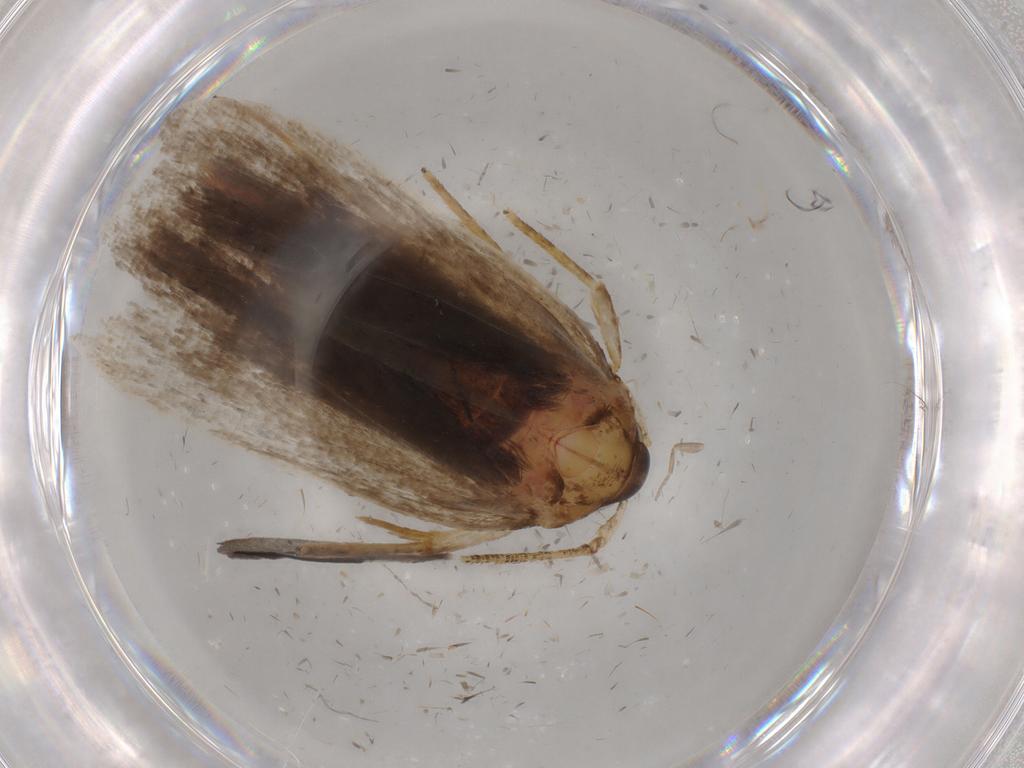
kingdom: Animalia
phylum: Arthropoda
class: Insecta
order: Lepidoptera
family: Autostichidae
